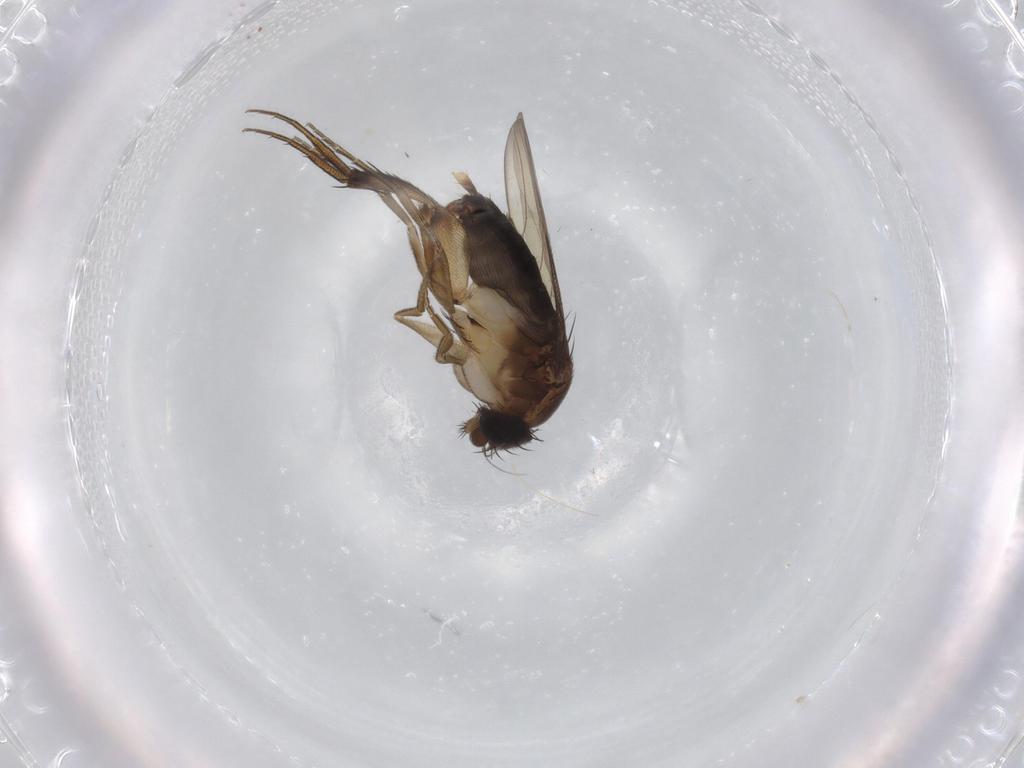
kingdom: Animalia
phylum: Arthropoda
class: Insecta
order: Diptera
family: Phoridae
